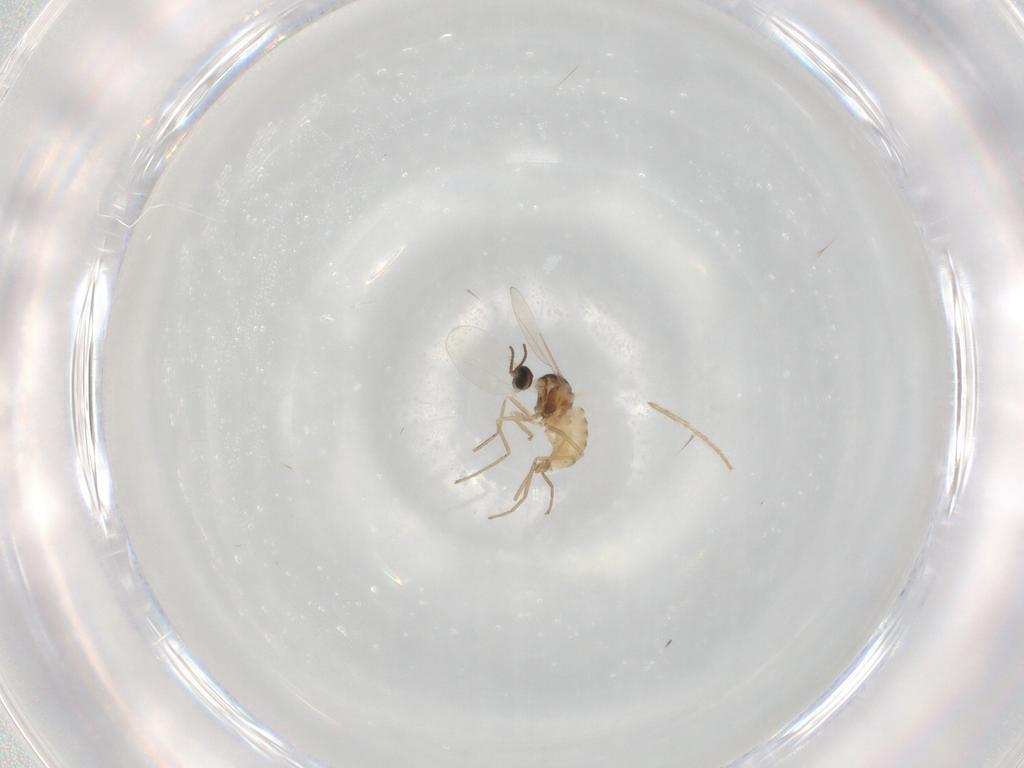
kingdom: Animalia
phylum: Arthropoda
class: Insecta
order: Diptera
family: Cecidomyiidae
